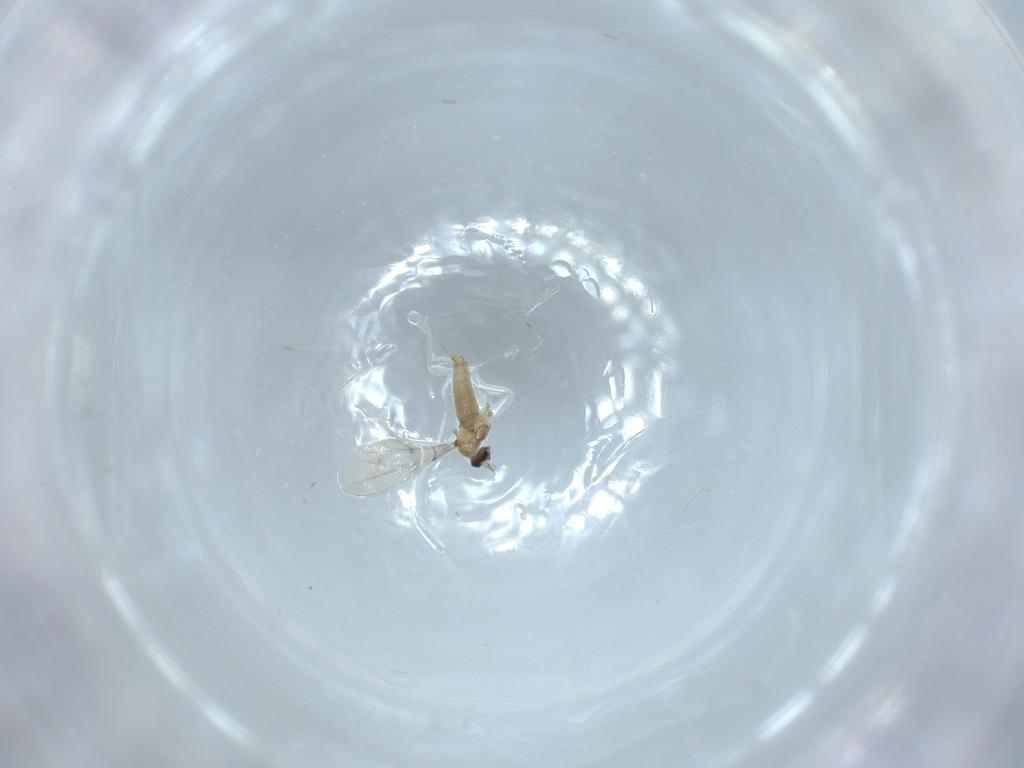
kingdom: Animalia
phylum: Arthropoda
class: Insecta
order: Diptera
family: Cecidomyiidae
